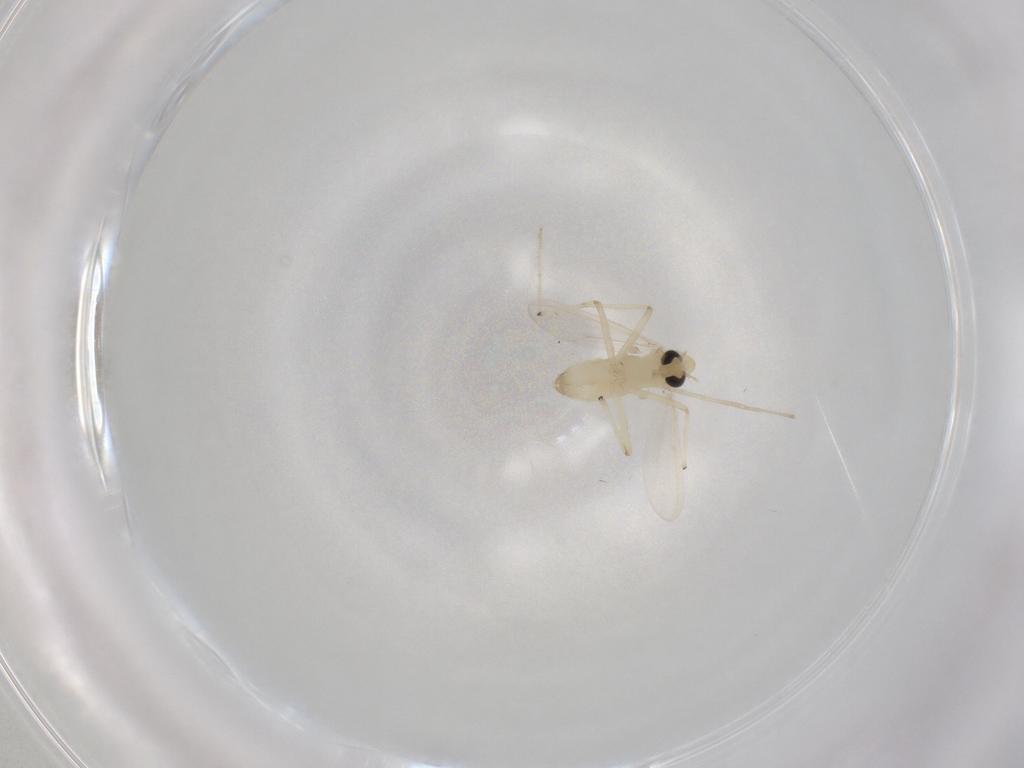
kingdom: Animalia
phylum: Arthropoda
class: Insecta
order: Diptera
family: Chironomidae
